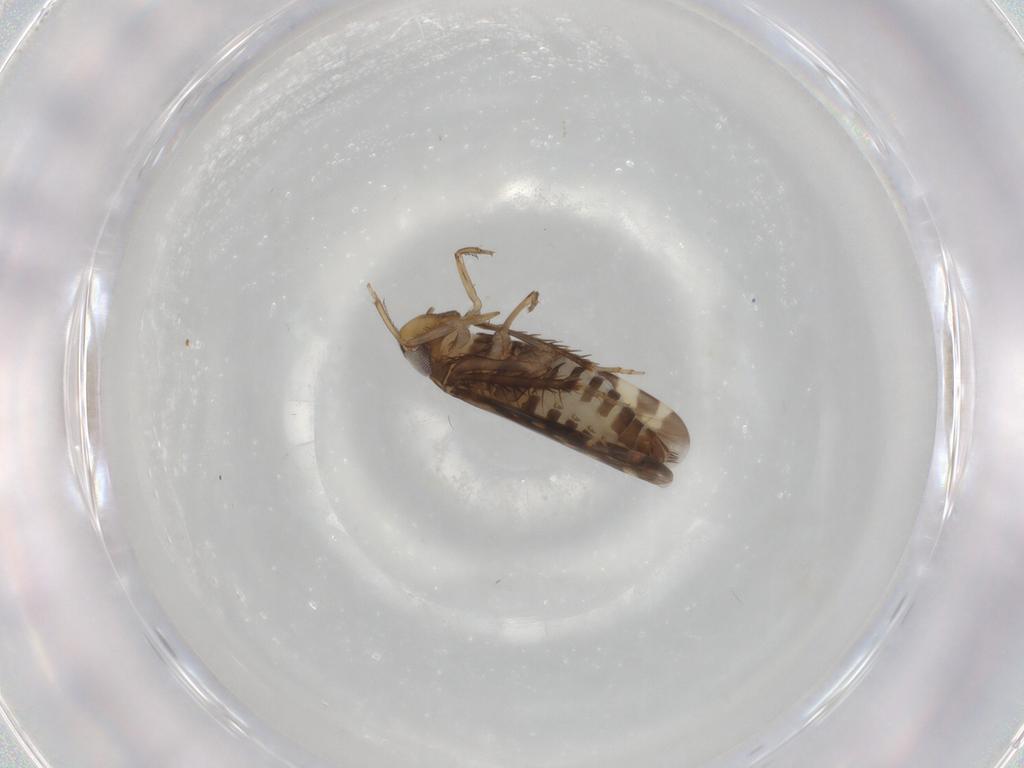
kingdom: Animalia
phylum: Arthropoda
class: Insecta
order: Hemiptera
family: Cicadellidae
